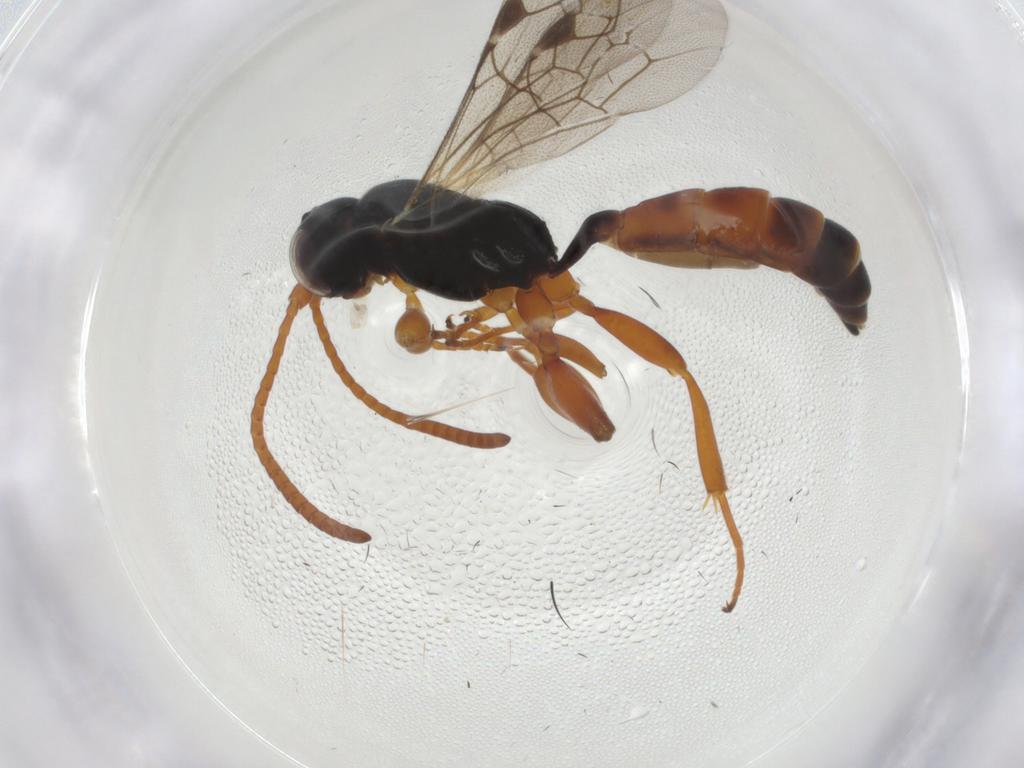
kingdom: Animalia
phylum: Arthropoda
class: Insecta
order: Hymenoptera
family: Ichneumonidae
